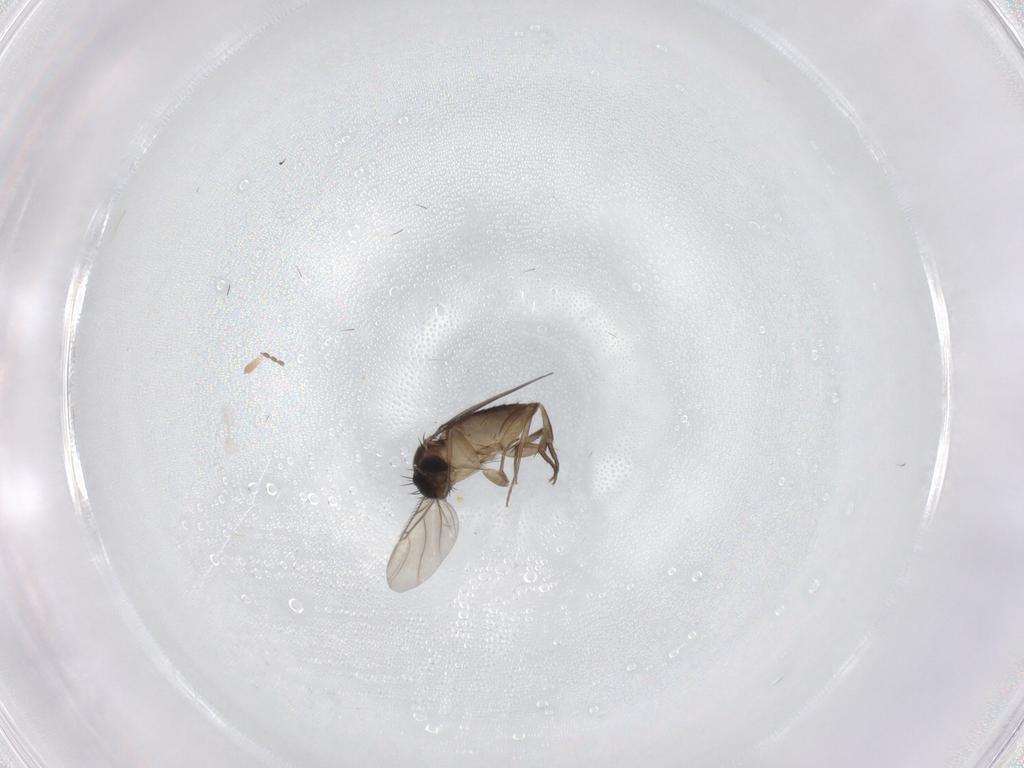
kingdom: Animalia
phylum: Arthropoda
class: Insecta
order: Diptera
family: Phoridae
